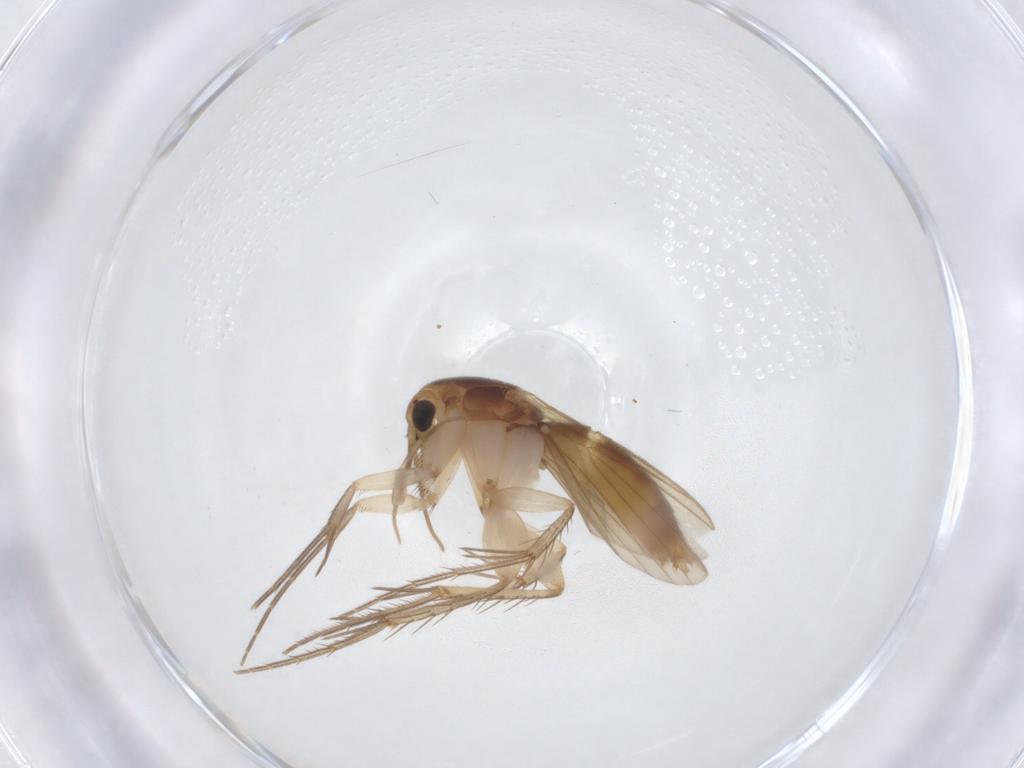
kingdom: Animalia
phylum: Arthropoda
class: Insecta
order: Diptera
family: Mycetophilidae
